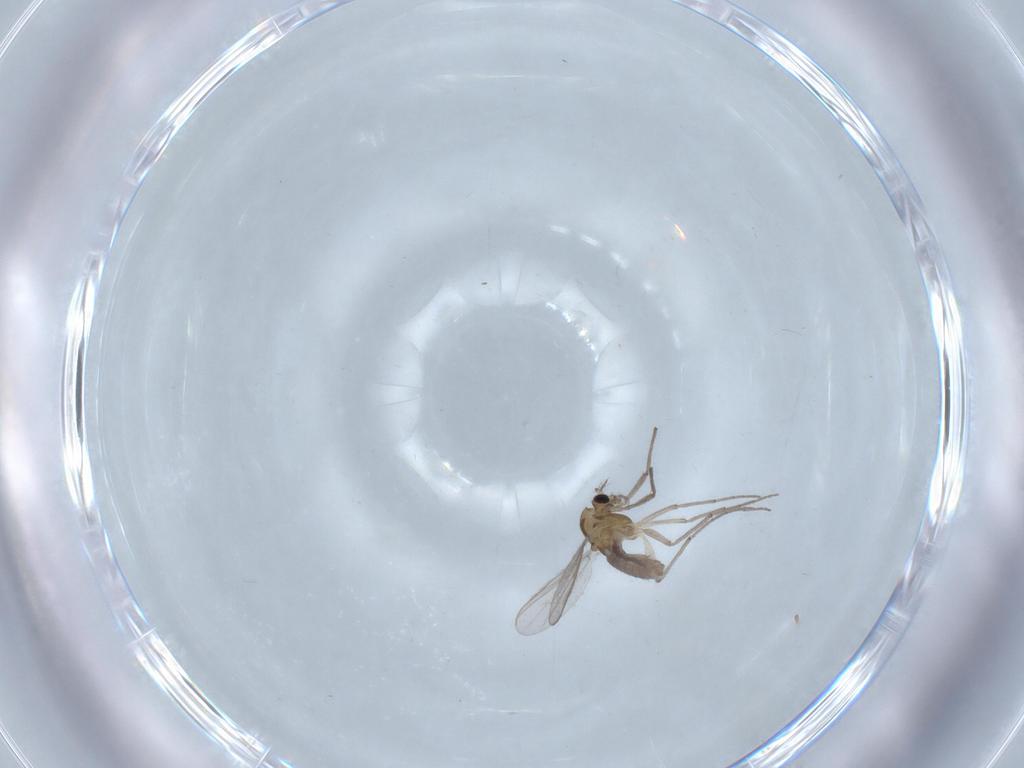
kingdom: Animalia
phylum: Arthropoda
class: Insecta
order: Diptera
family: Chironomidae
